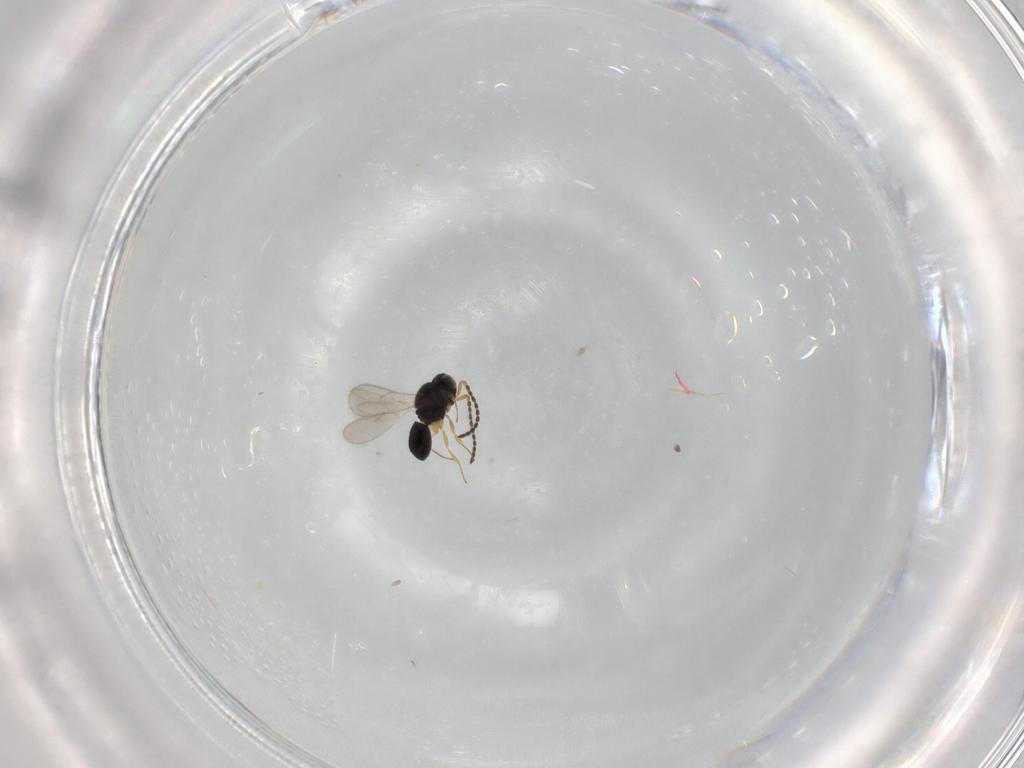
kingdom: Animalia
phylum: Arthropoda
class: Insecta
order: Hymenoptera
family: Scelionidae
